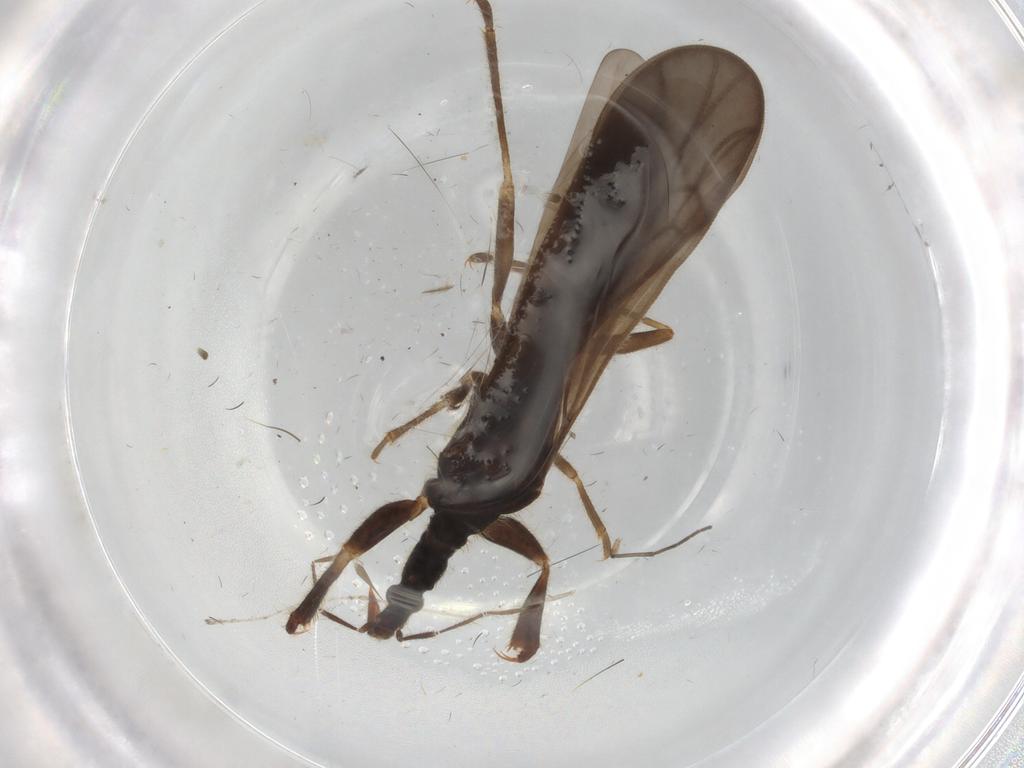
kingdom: Animalia
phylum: Arthropoda
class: Insecta
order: Hemiptera
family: Enicocephalidae
